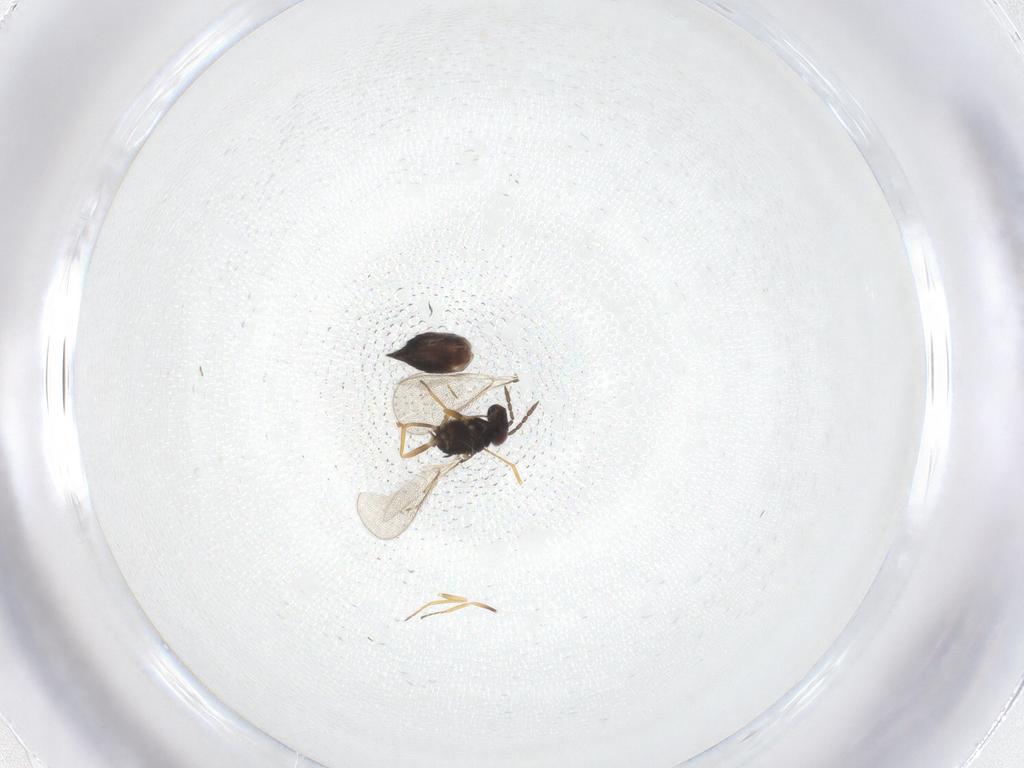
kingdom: Animalia
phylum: Arthropoda
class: Insecta
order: Hymenoptera
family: Eulophidae
